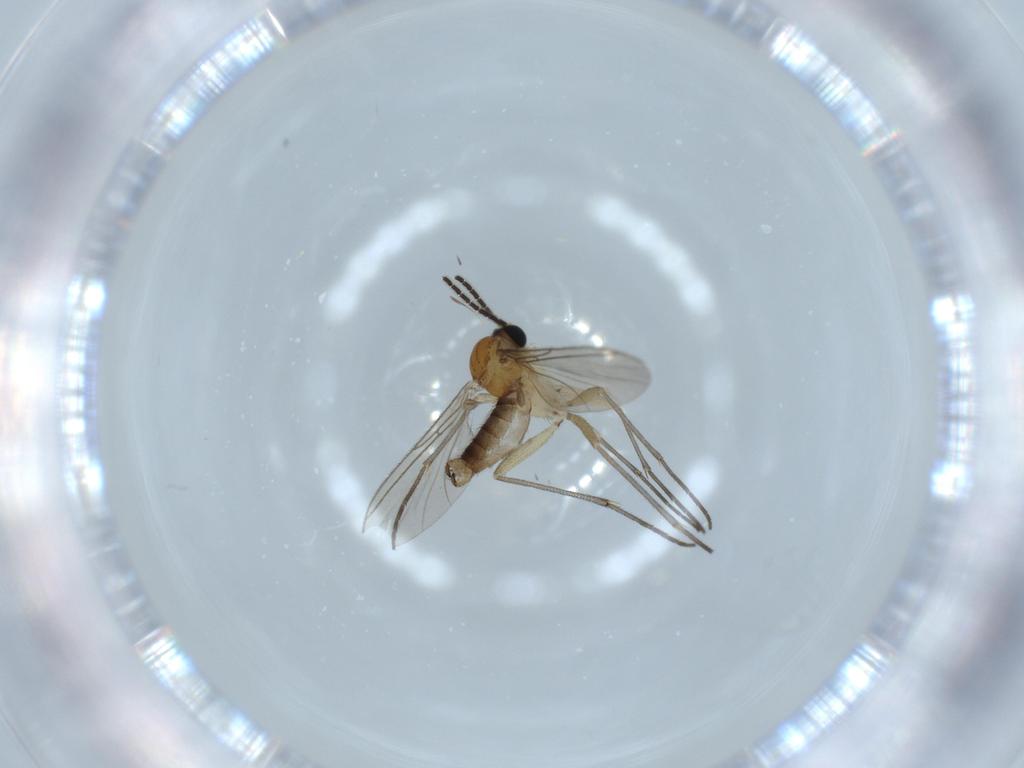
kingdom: Animalia
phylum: Arthropoda
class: Insecta
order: Diptera
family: Sciaridae
